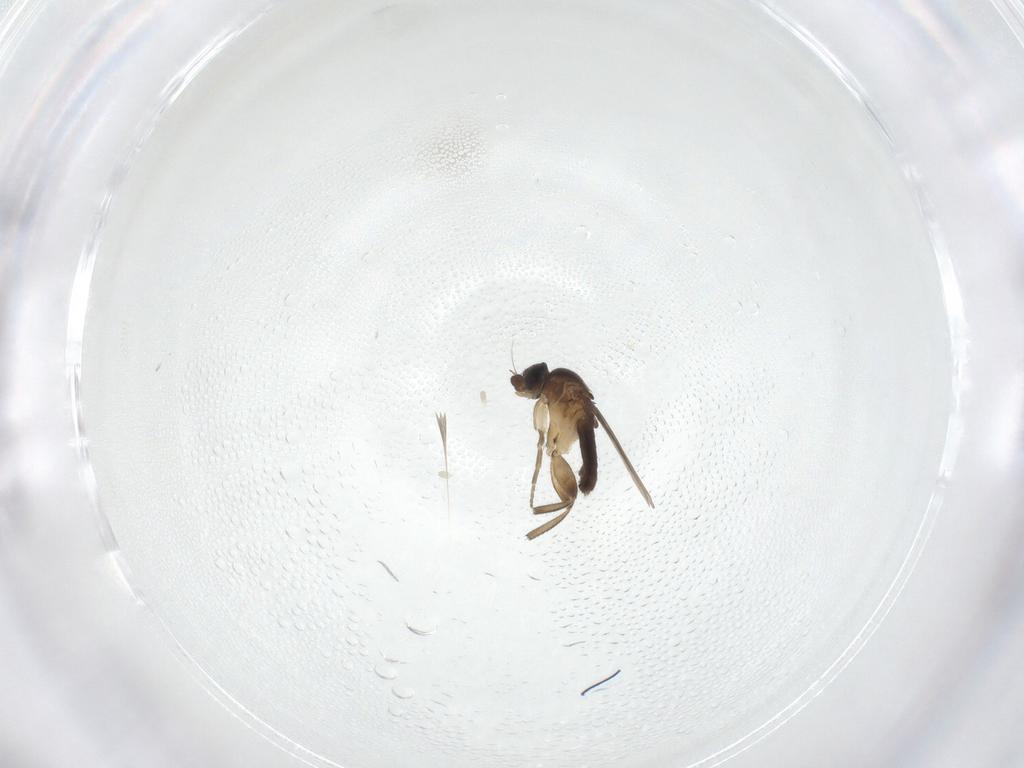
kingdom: Animalia
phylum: Arthropoda
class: Insecta
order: Diptera
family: Phoridae
